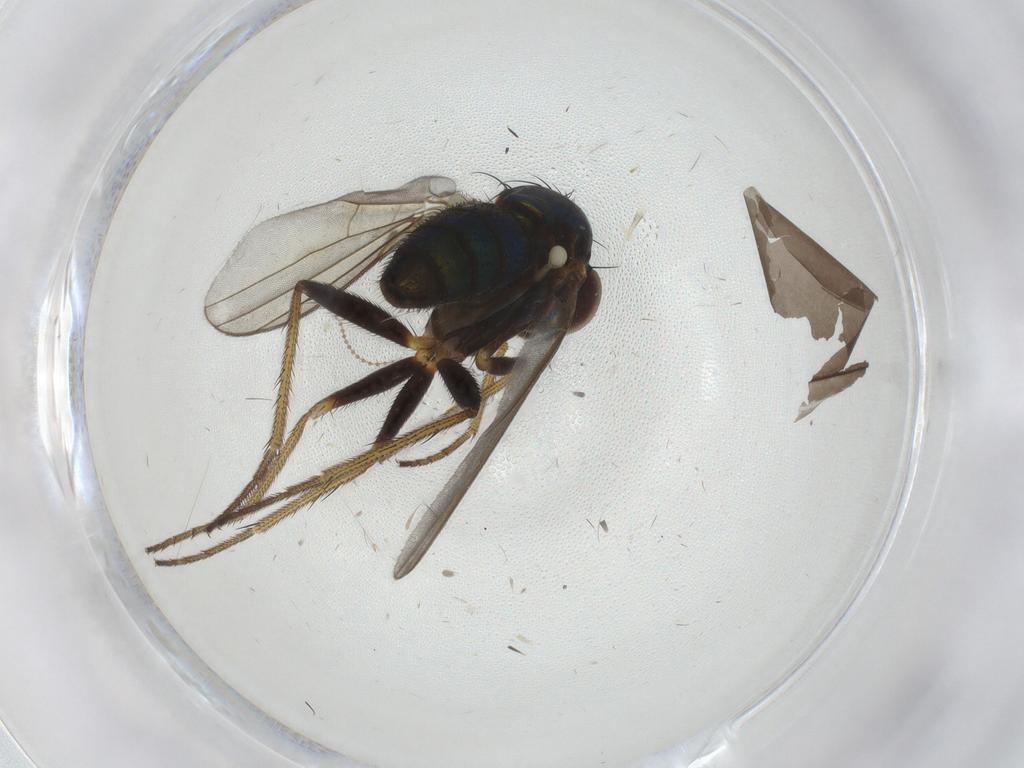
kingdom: Animalia
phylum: Arthropoda
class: Insecta
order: Diptera
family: Dolichopodidae
